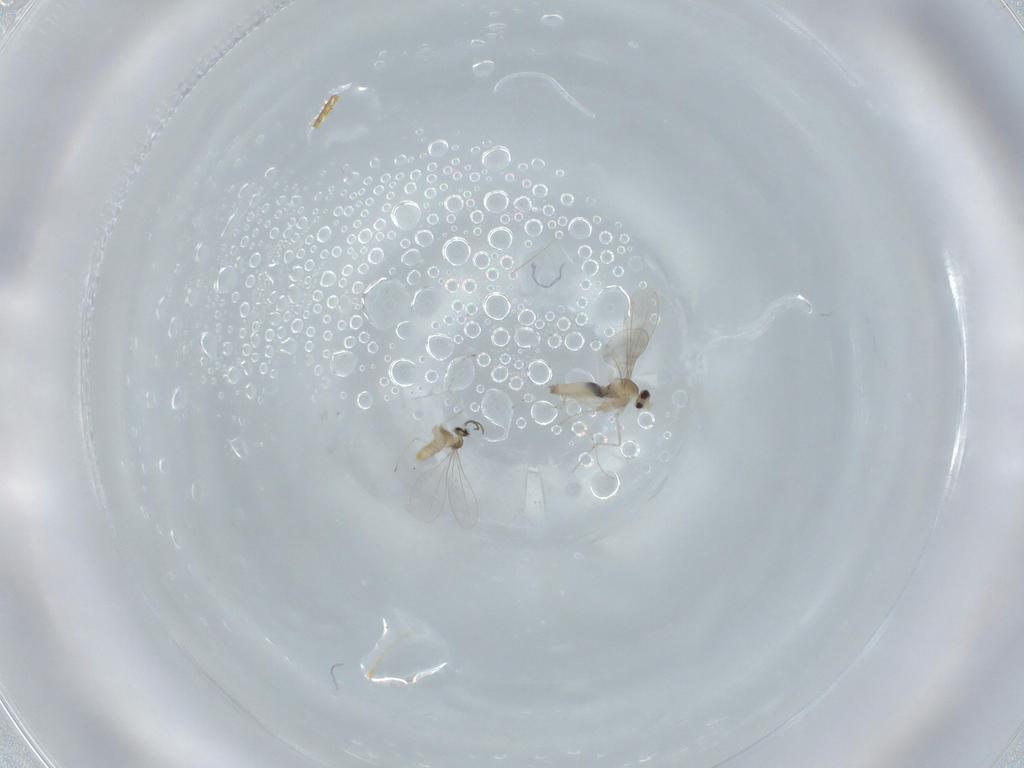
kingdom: Animalia
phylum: Arthropoda
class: Insecta
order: Diptera
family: Cecidomyiidae
